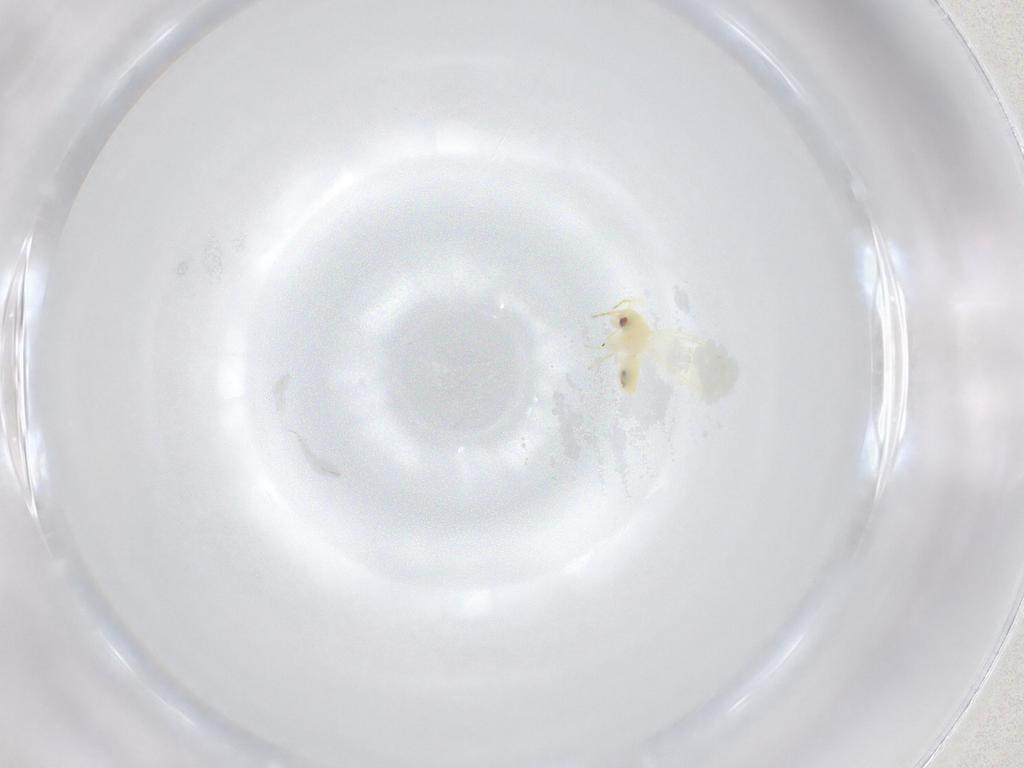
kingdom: Animalia
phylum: Arthropoda
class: Insecta
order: Hemiptera
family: Aleyrodidae
